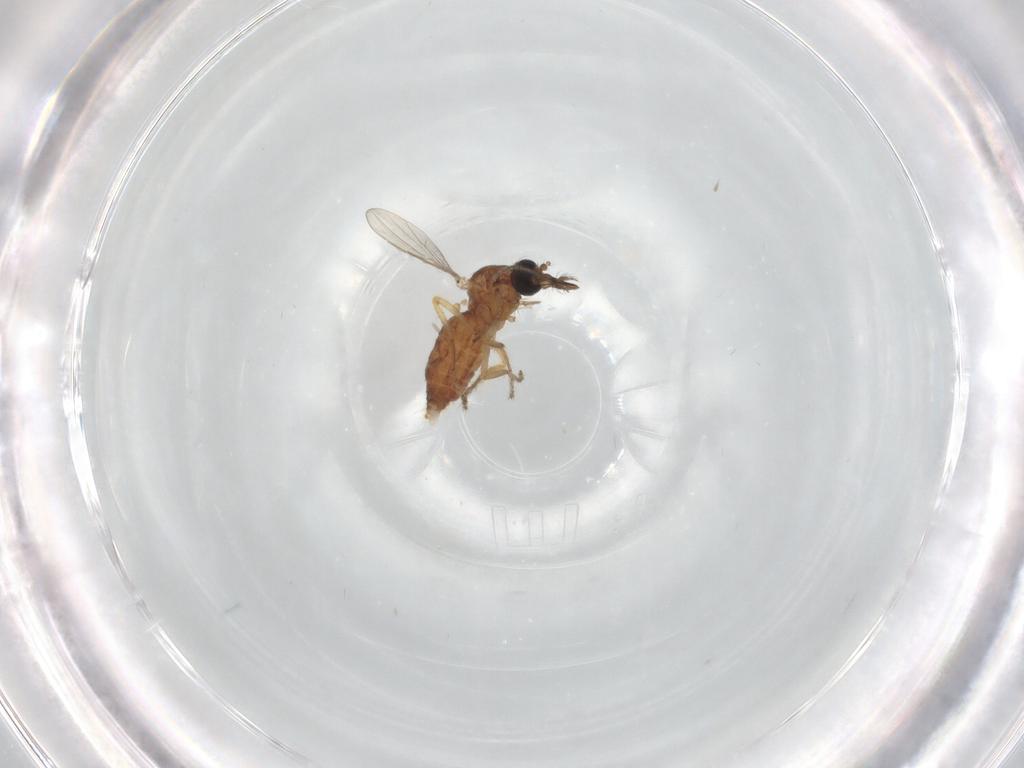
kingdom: Animalia
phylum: Arthropoda
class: Insecta
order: Diptera
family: Ceratopogonidae
